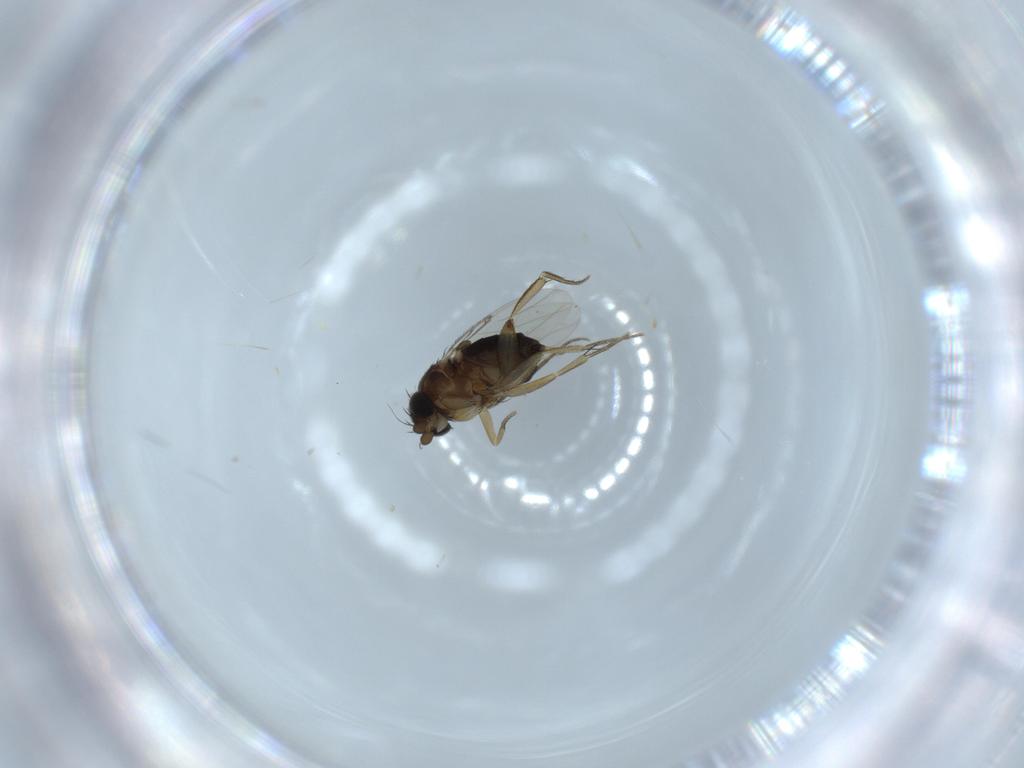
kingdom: Animalia
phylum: Arthropoda
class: Insecta
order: Diptera
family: Phoridae
